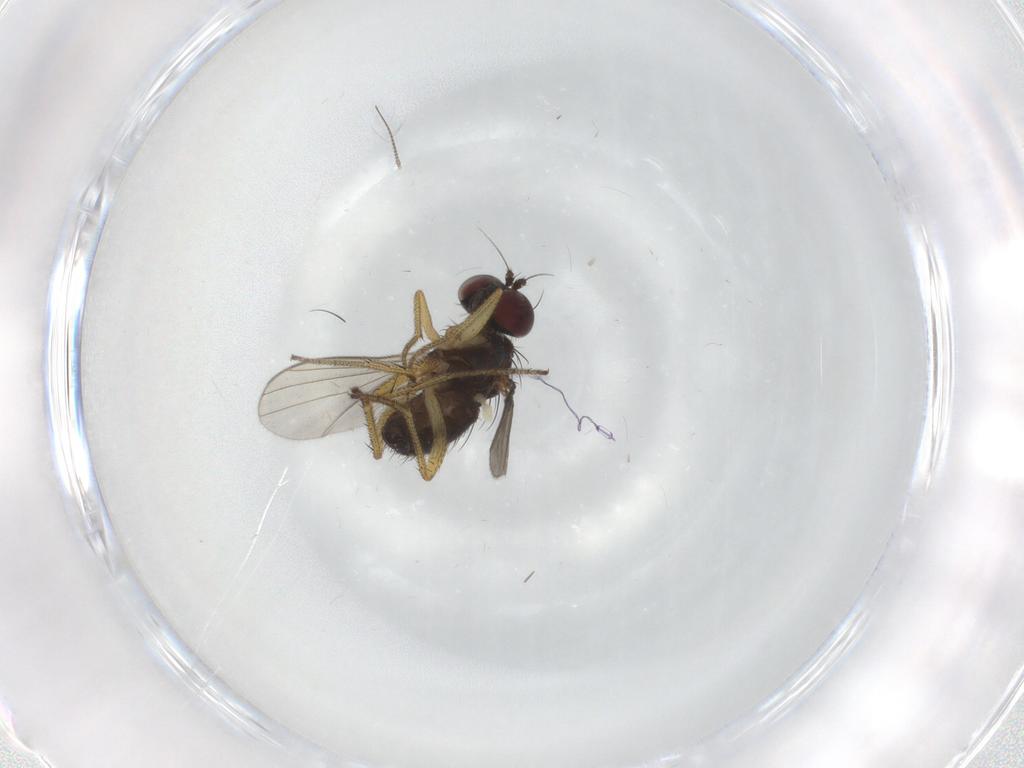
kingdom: Animalia
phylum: Arthropoda
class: Insecta
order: Diptera
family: Chironomidae
